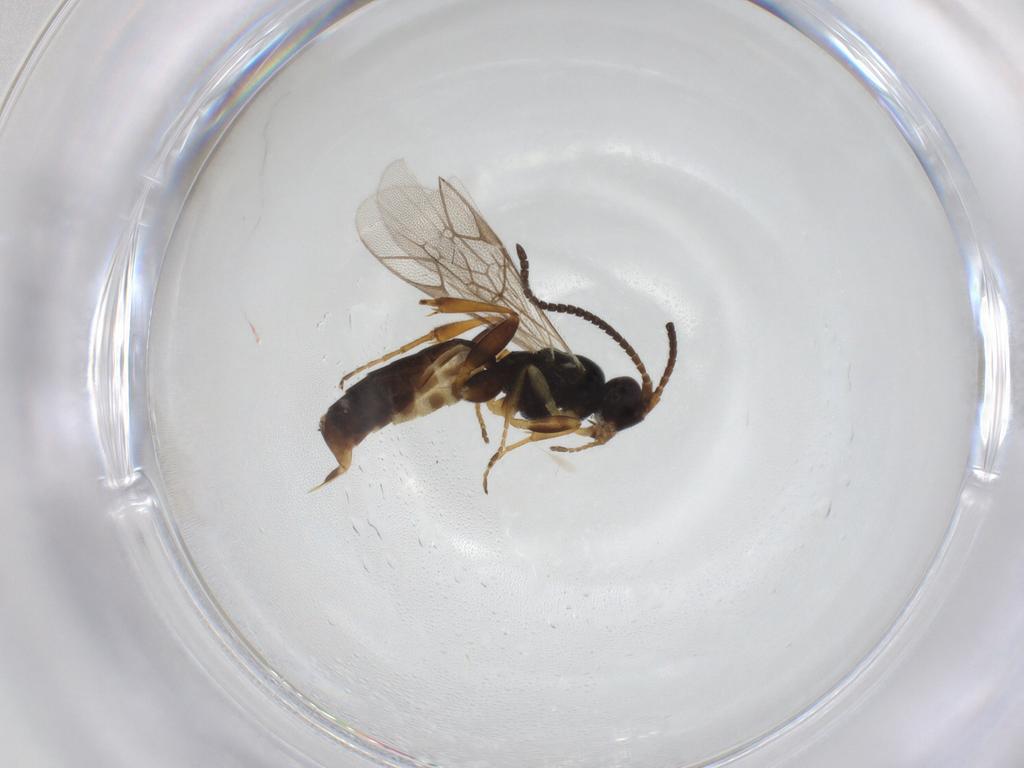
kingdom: Animalia
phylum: Arthropoda
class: Insecta
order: Hymenoptera
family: Ichneumonidae
